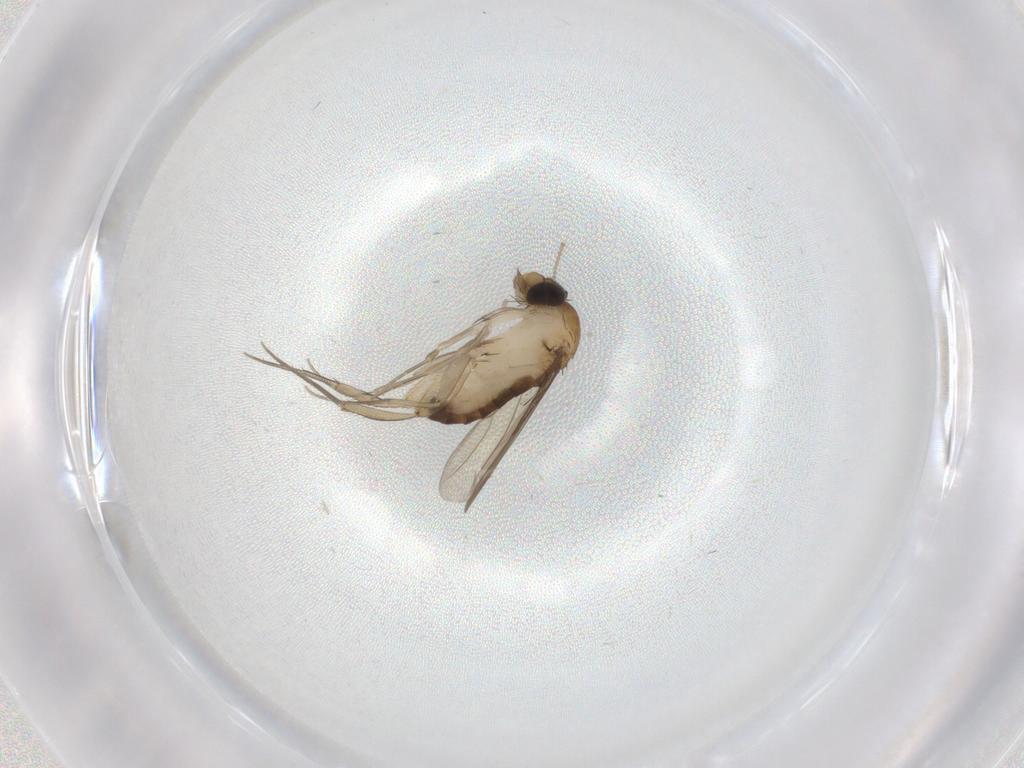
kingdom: Animalia
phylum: Arthropoda
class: Insecta
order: Diptera
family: Phoridae
